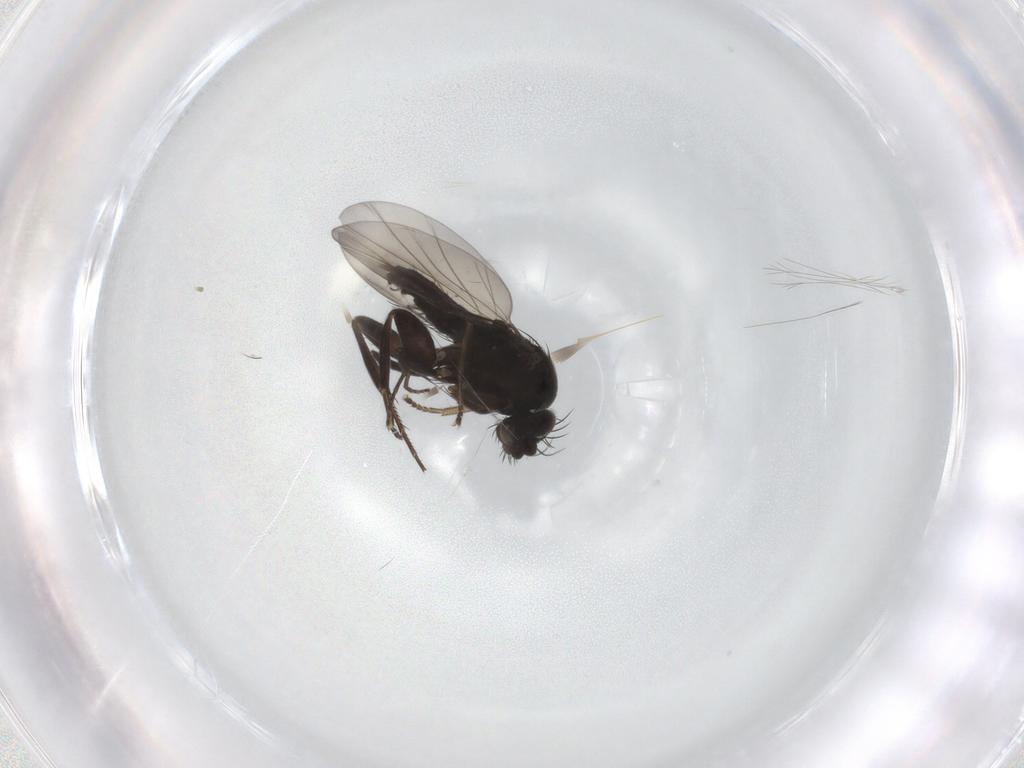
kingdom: Animalia
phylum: Arthropoda
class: Insecta
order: Diptera
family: Phoridae
